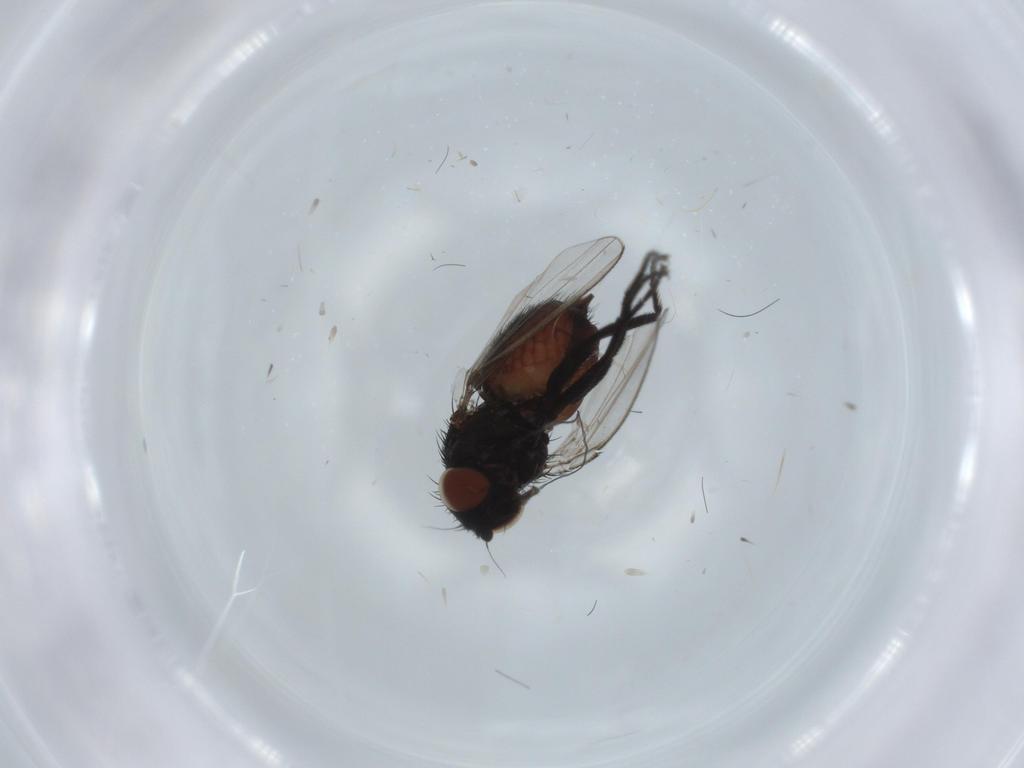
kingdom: Animalia
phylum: Arthropoda
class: Insecta
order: Diptera
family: Milichiidae
